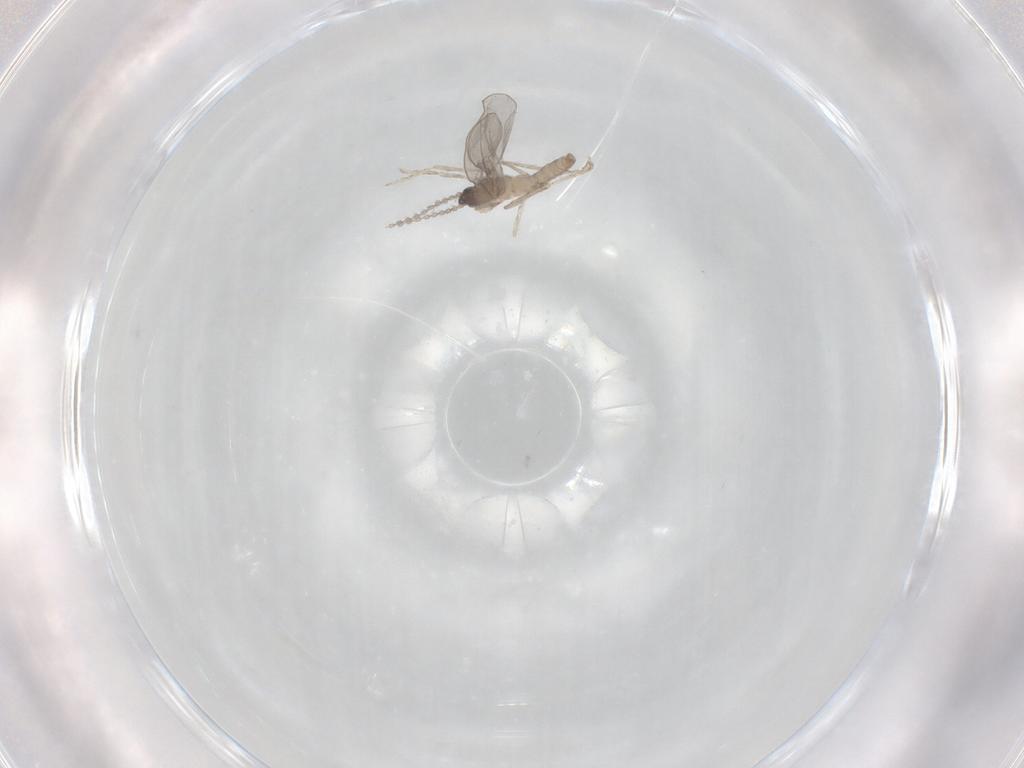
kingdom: Animalia
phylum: Arthropoda
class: Insecta
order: Diptera
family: Cecidomyiidae
